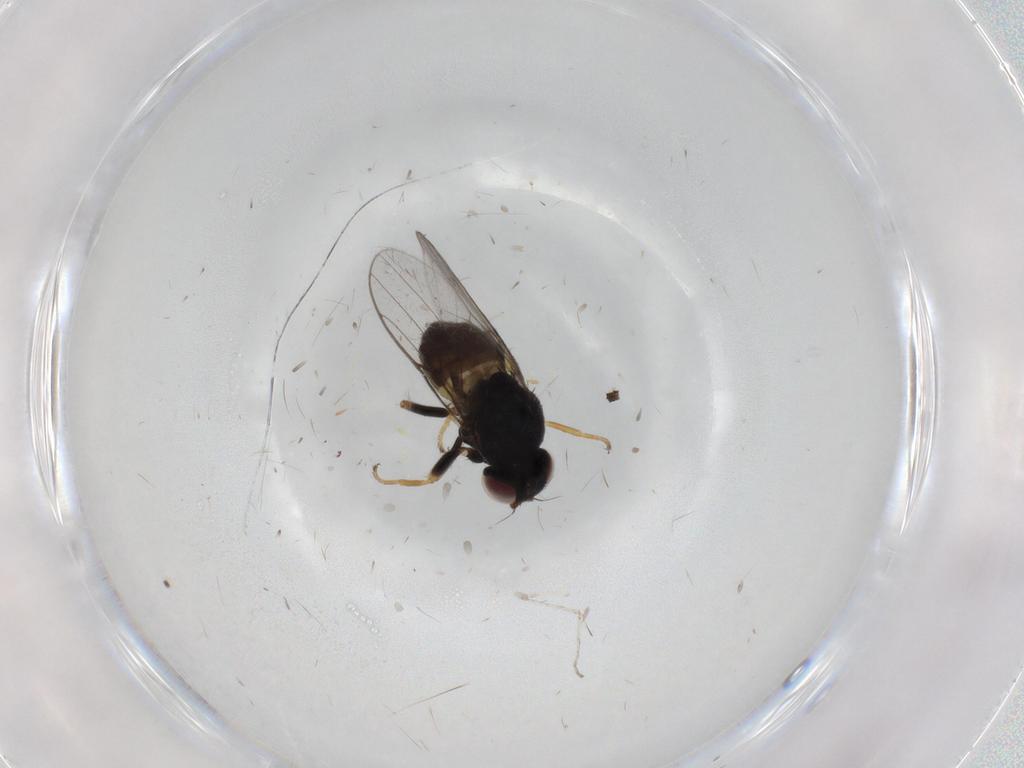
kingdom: Animalia
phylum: Arthropoda
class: Insecta
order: Diptera
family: Chloropidae
